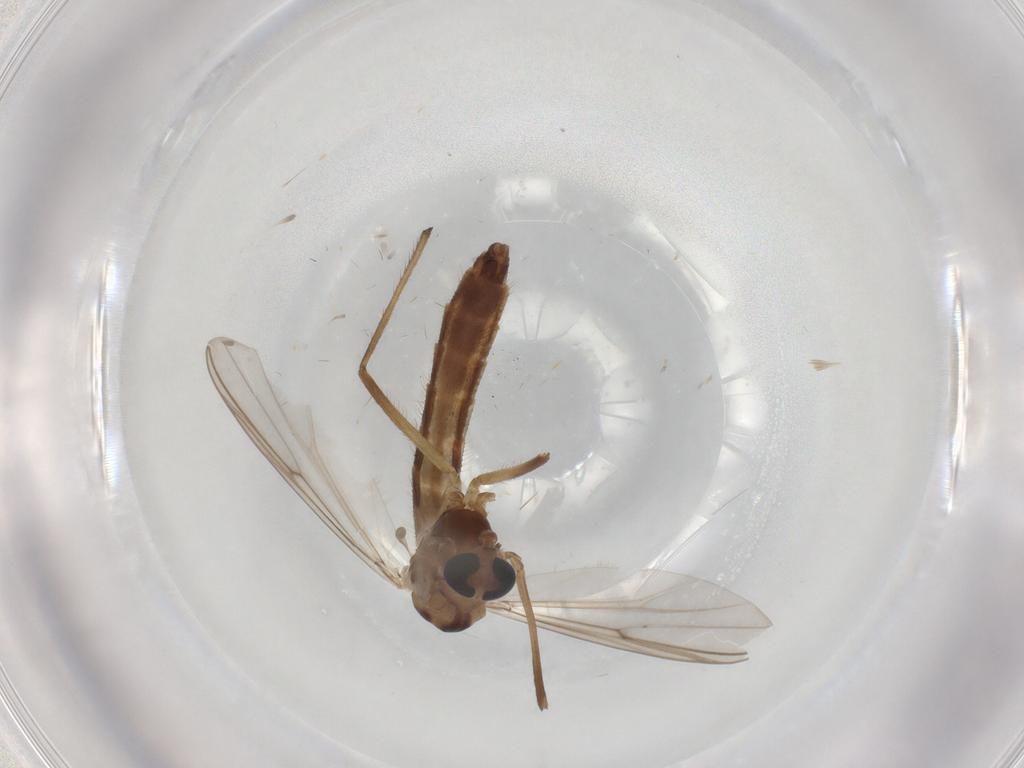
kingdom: Animalia
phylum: Arthropoda
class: Insecta
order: Diptera
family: Chironomidae
